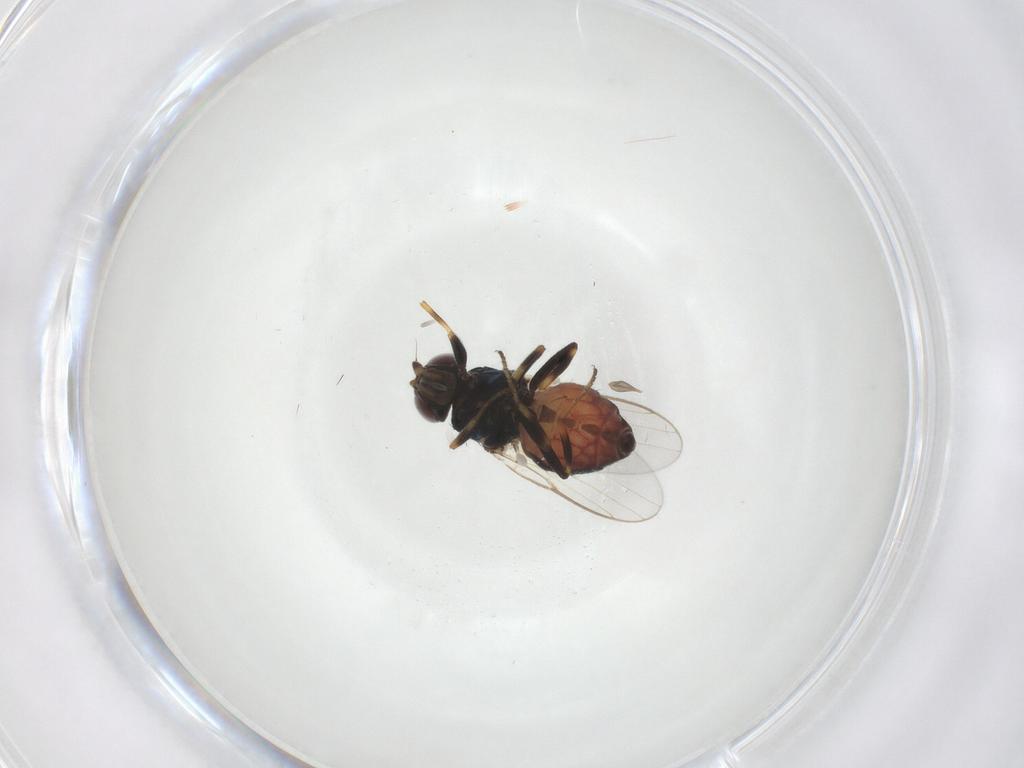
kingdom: Animalia
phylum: Arthropoda
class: Insecta
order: Diptera
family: Chloropidae
